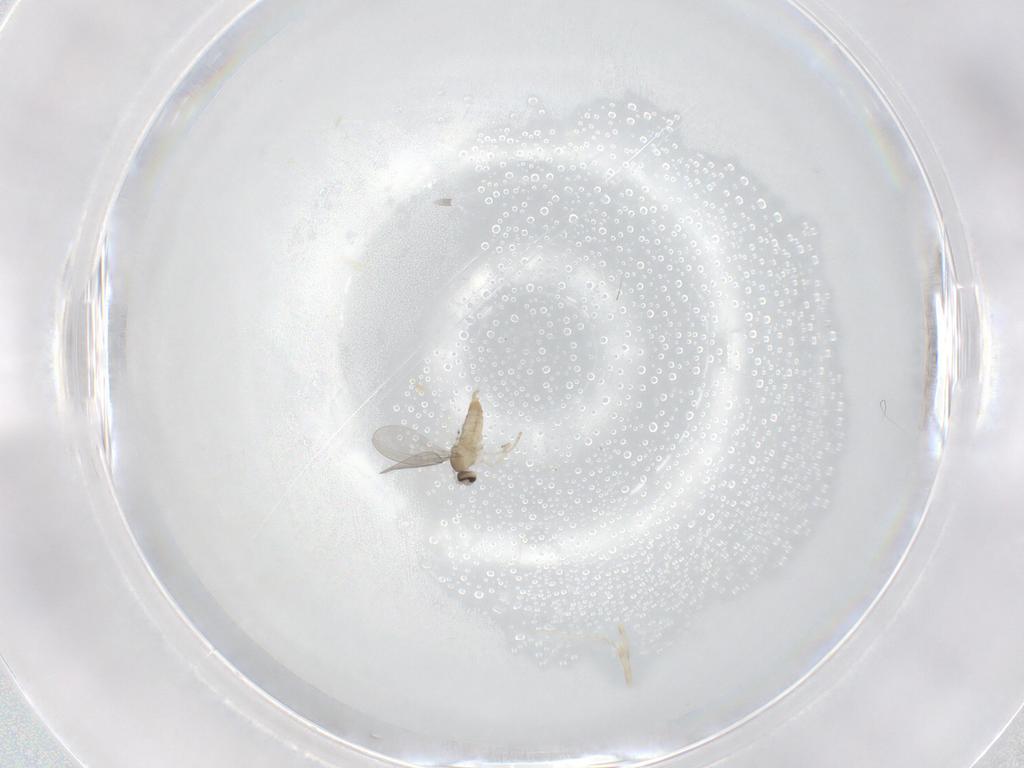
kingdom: Animalia
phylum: Arthropoda
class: Insecta
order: Diptera
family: Cecidomyiidae
